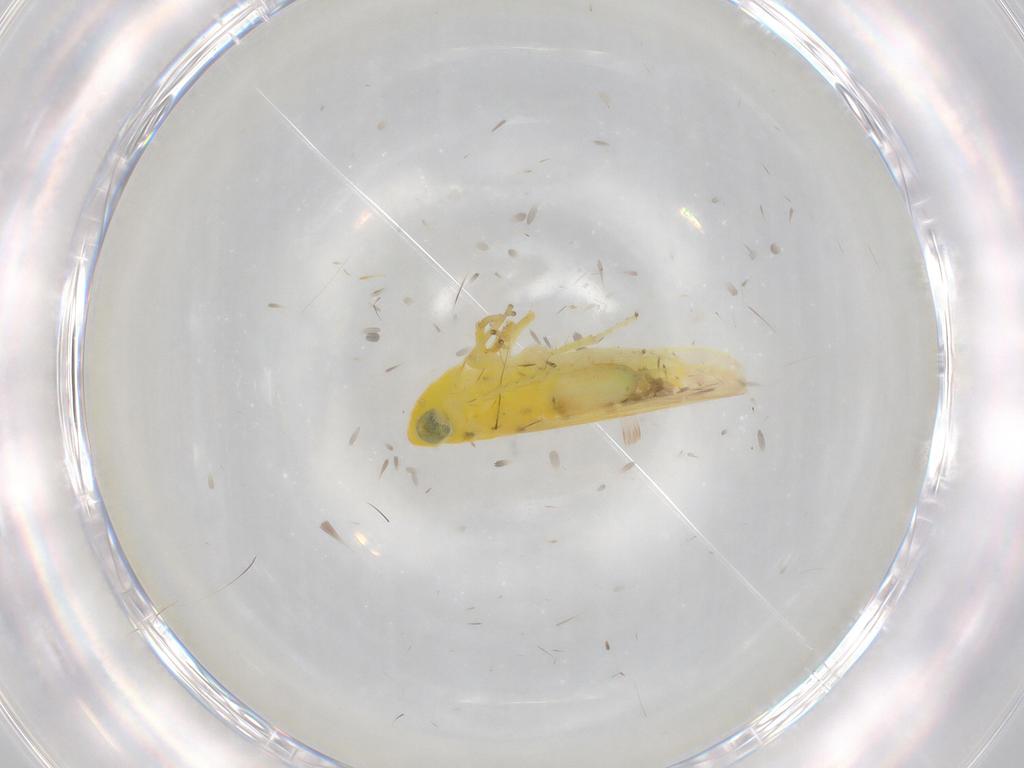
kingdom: Animalia
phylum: Arthropoda
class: Insecta
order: Hemiptera
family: Cicadellidae
